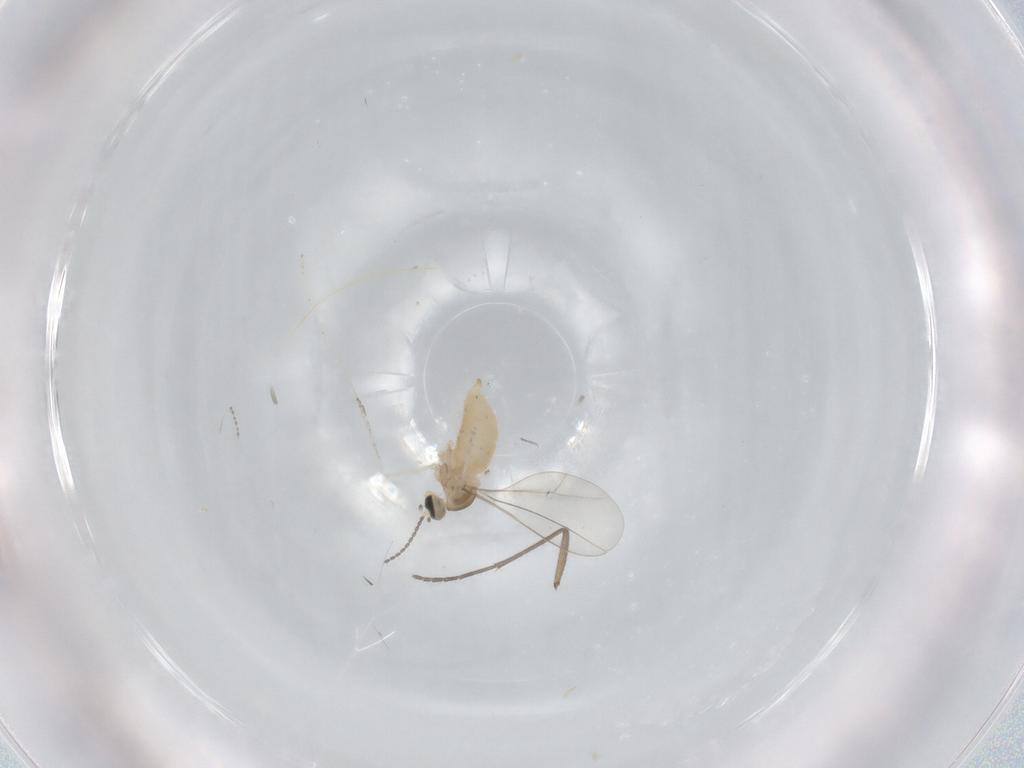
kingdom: Animalia
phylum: Arthropoda
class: Insecta
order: Diptera
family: Cecidomyiidae
